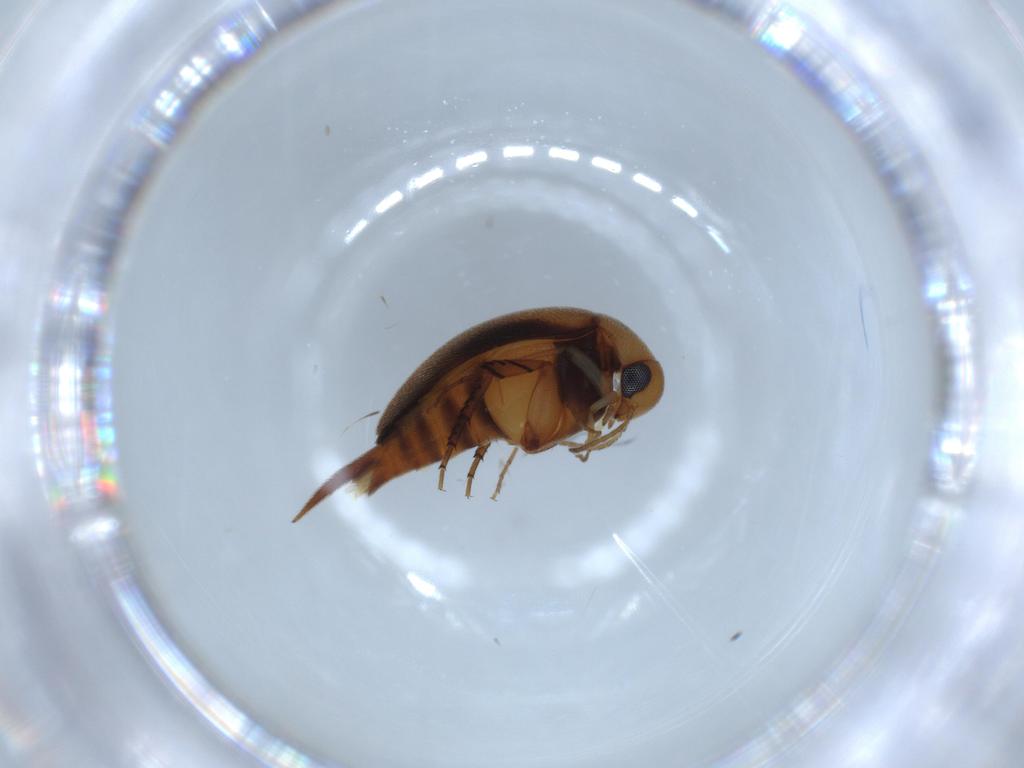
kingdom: Animalia
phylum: Arthropoda
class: Insecta
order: Coleoptera
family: Mordellidae
